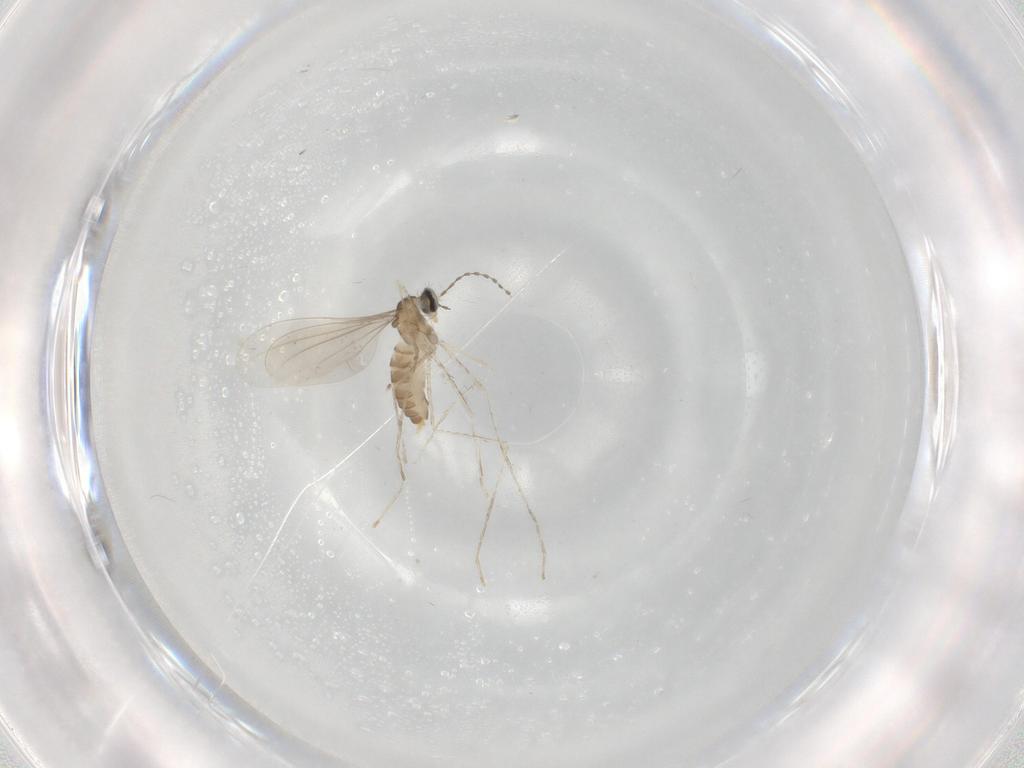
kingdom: Animalia
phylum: Arthropoda
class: Insecta
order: Diptera
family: Cecidomyiidae
